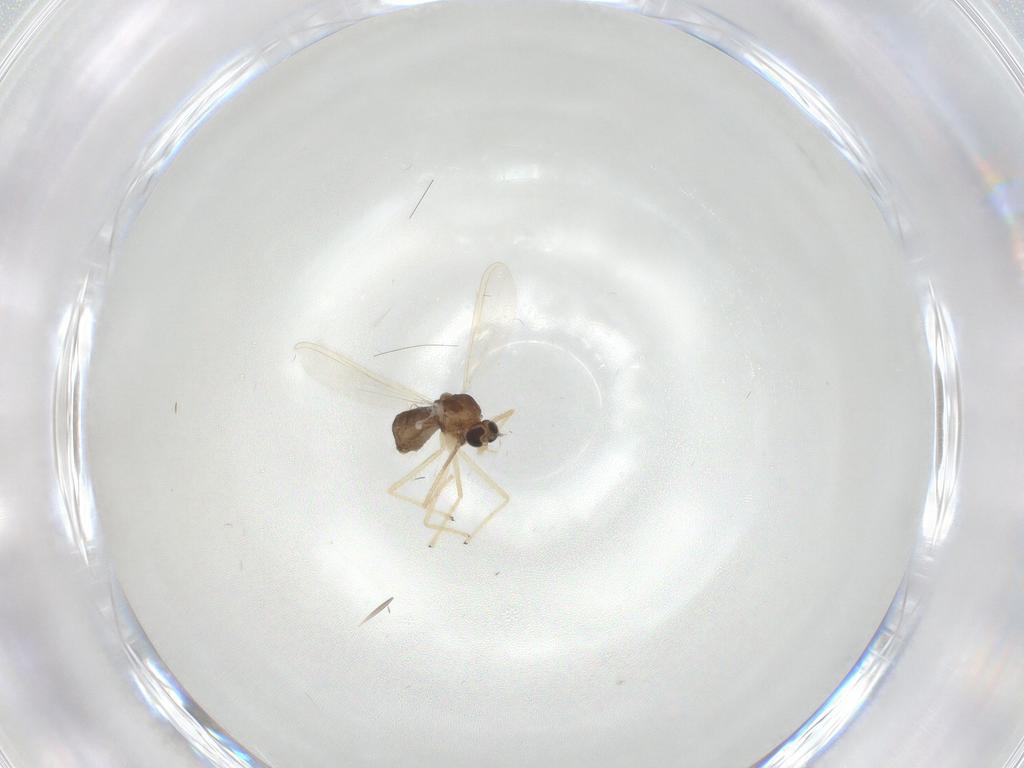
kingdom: Animalia
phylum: Arthropoda
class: Insecta
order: Diptera
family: Chironomidae
